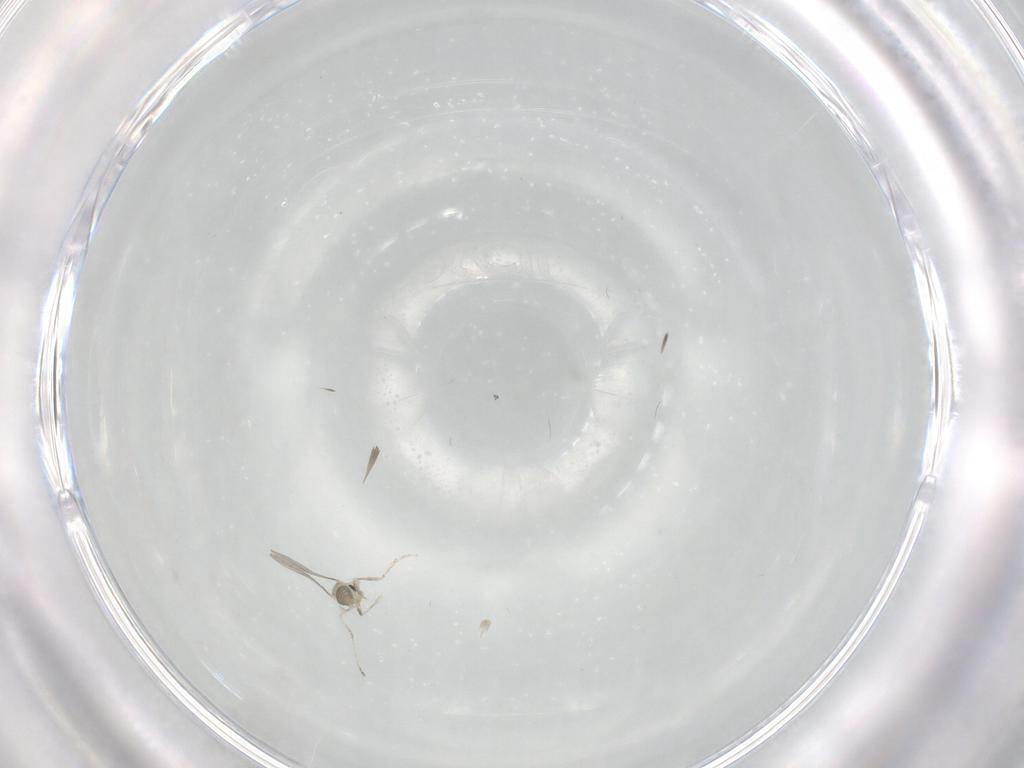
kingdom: Animalia
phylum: Arthropoda
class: Insecta
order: Diptera
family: Cecidomyiidae
